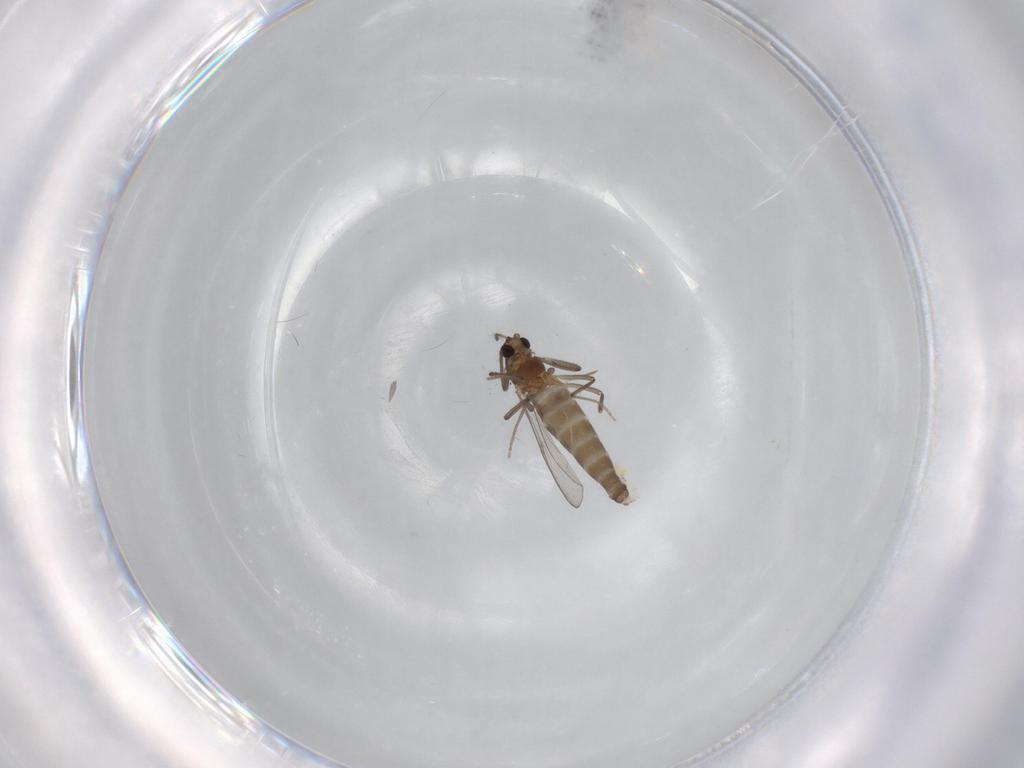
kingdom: Animalia
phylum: Arthropoda
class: Insecta
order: Diptera
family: Chironomidae
